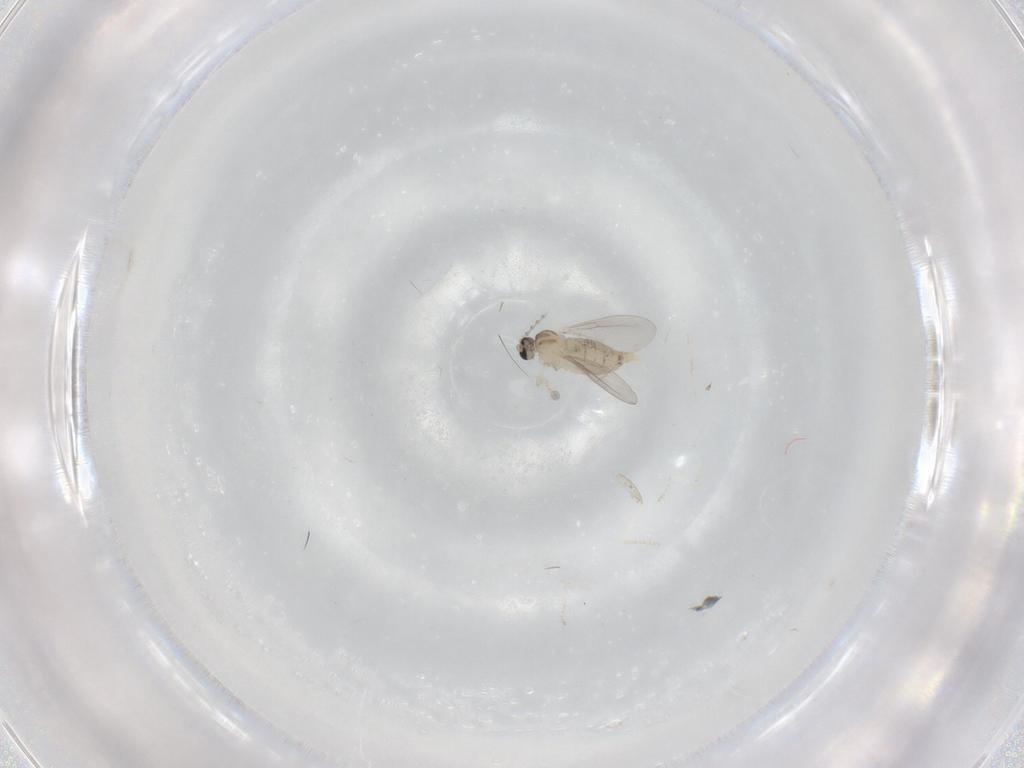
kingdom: Animalia
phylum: Arthropoda
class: Insecta
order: Diptera
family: Cecidomyiidae
